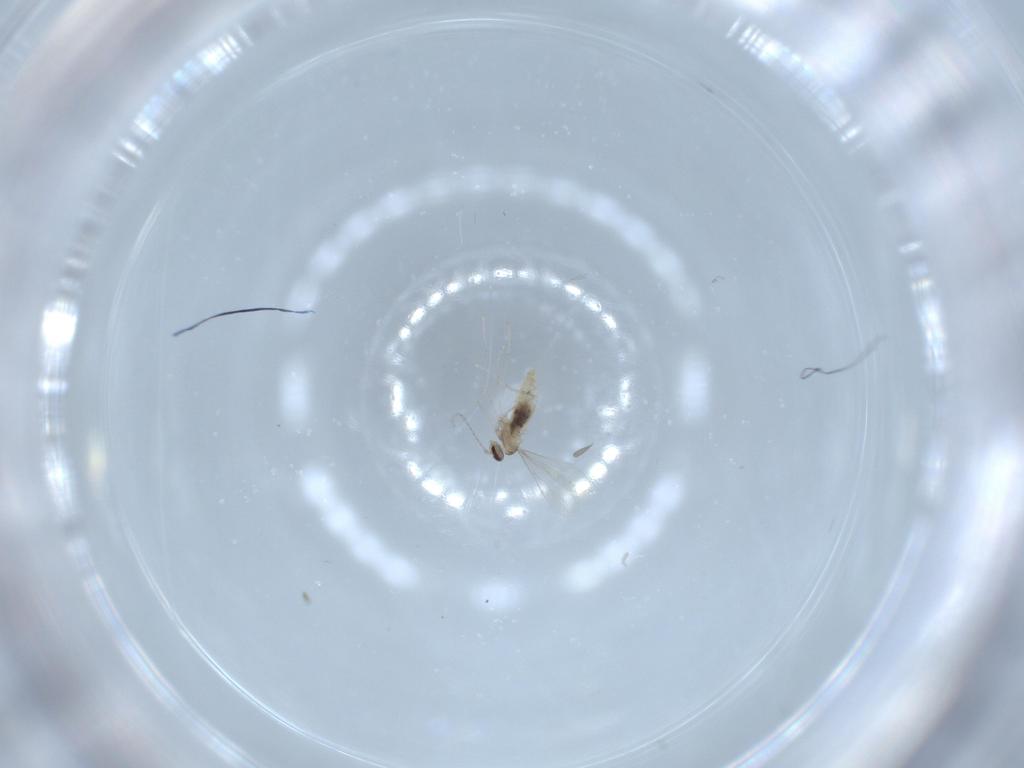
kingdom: Animalia
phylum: Arthropoda
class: Insecta
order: Diptera
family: Cecidomyiidae
